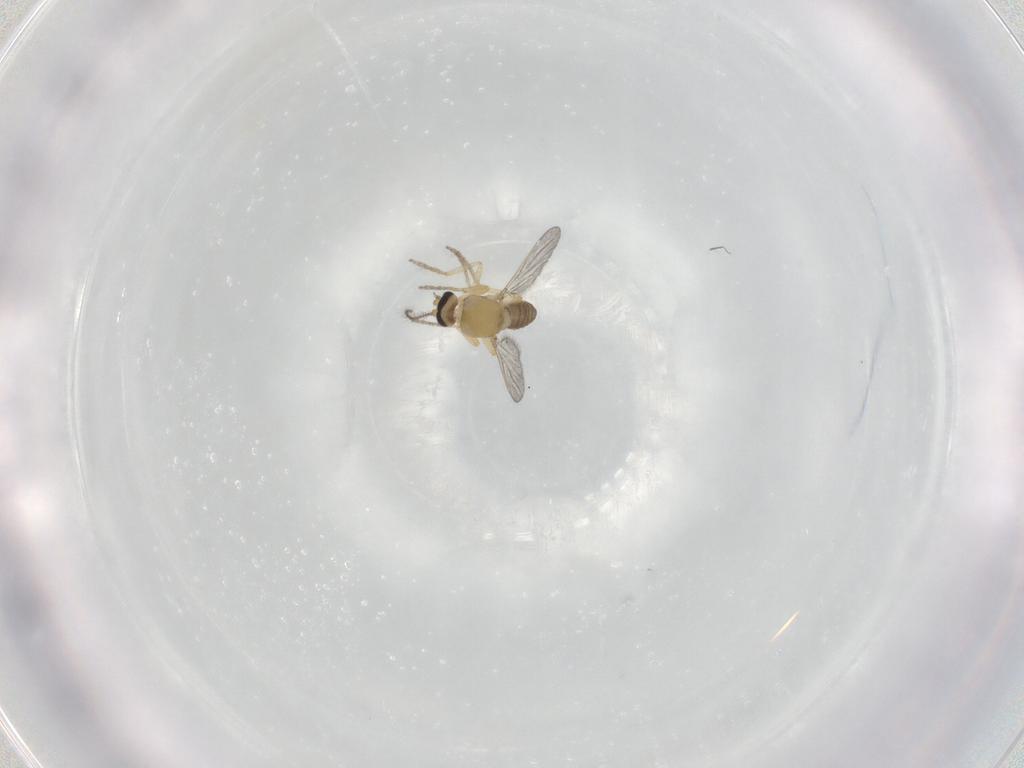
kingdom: Animalia
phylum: Arthropoda
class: Insecta
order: Diptera
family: Ceratopogonidae
